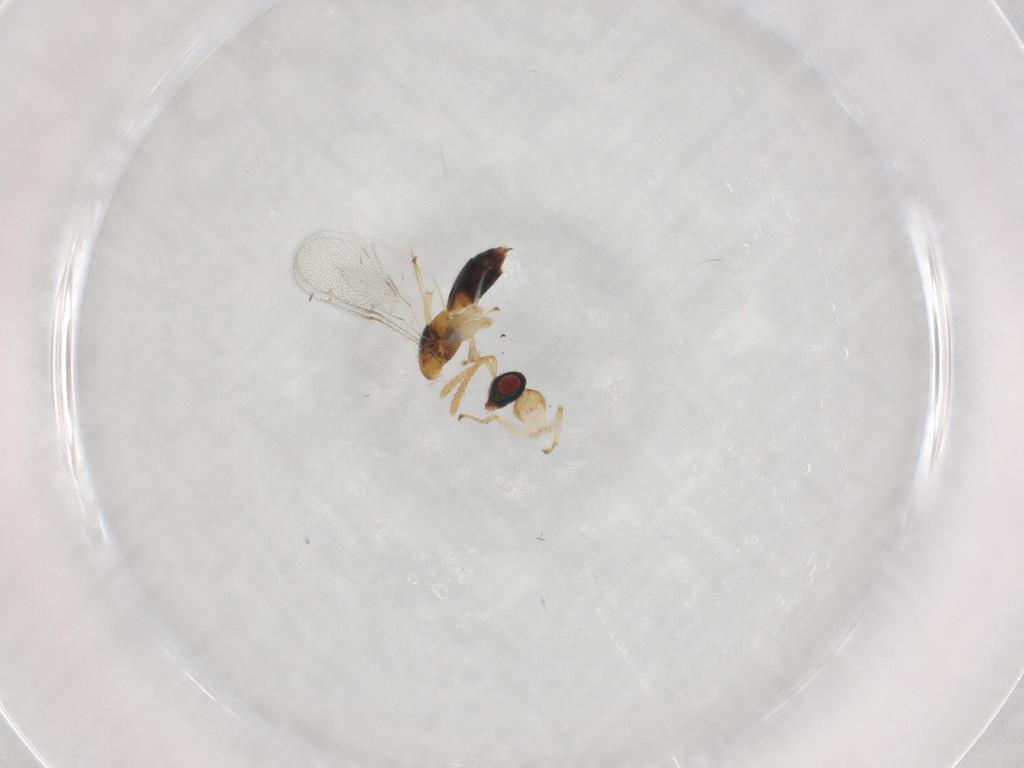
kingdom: Animalia
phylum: Arthropoda
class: Insecta
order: Hymenoptera
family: Torymidae
